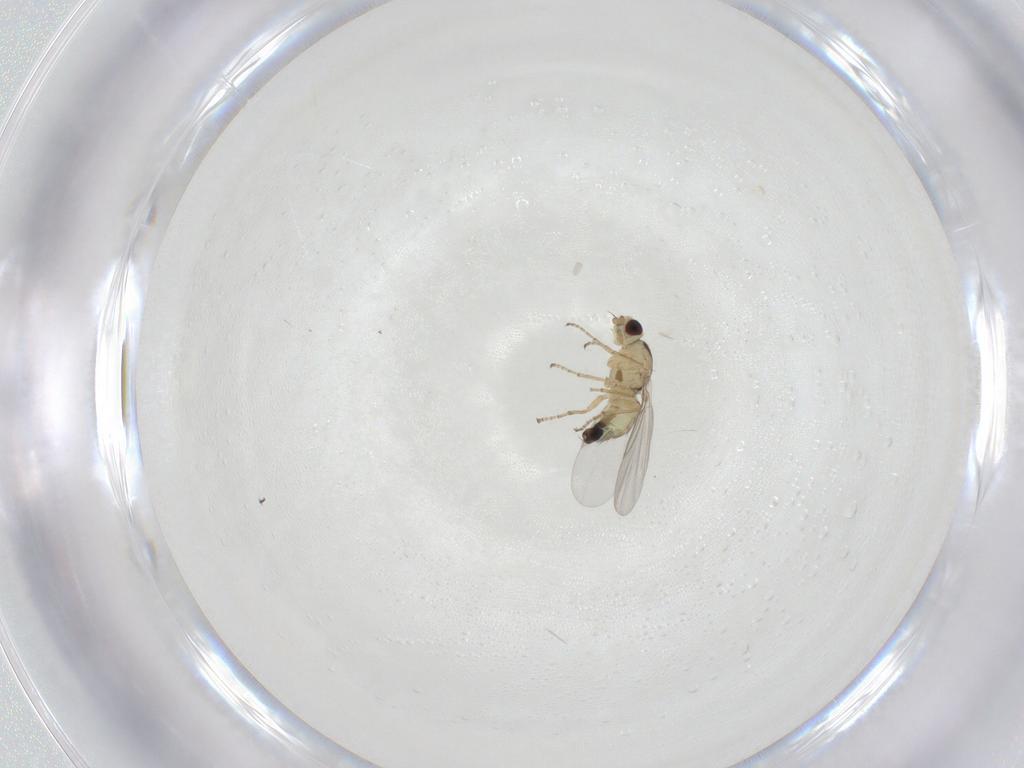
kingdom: Animalia
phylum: Arthropoda
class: Insecta
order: Diptera
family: Agromyzidae
